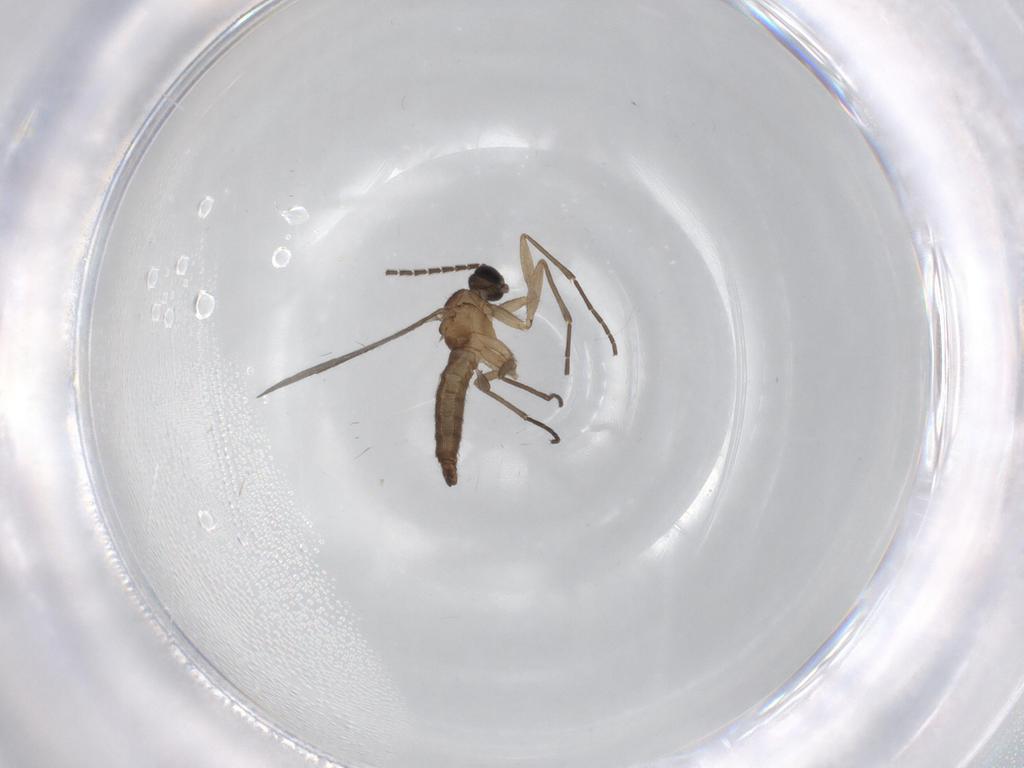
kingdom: Animalia
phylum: Arthropoda
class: Insecta
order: Diptera
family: Sciaridae
